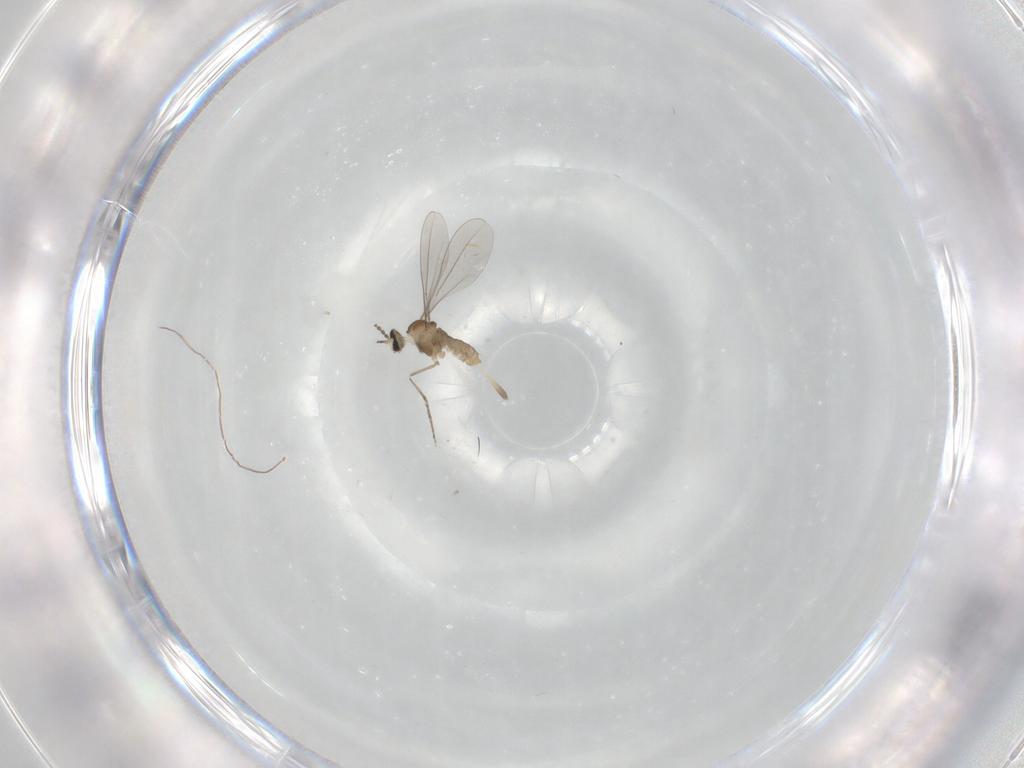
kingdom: Animalia
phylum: Arthropoda
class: Insecta
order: Diptera
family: Cecidomyiidae
